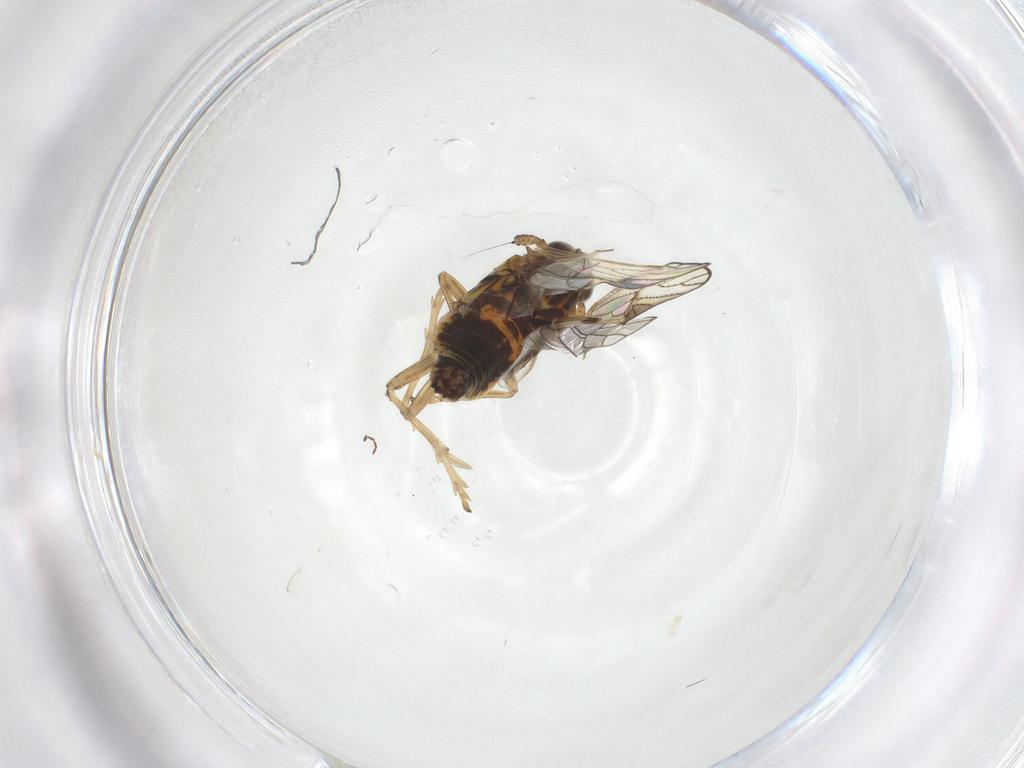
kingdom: Animalia
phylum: Arthropoda
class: Insecta
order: Hemiptera
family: Delphacidae
